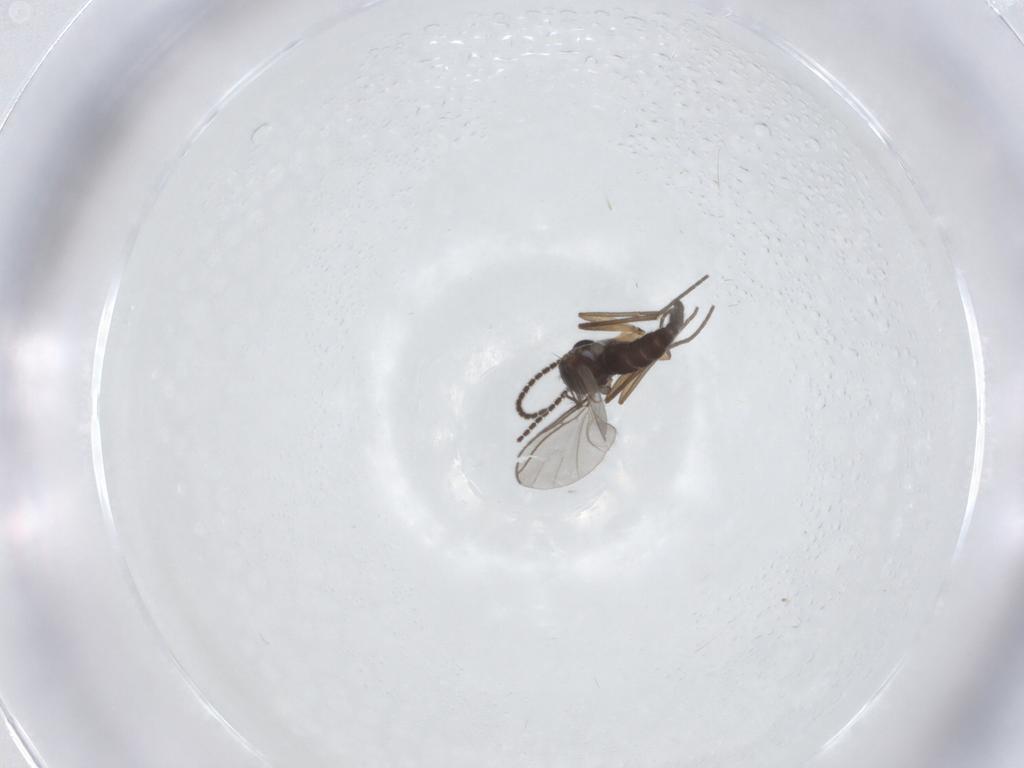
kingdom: Animalia
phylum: Arthropoda
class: Insecta
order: Diptera
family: Sciaridae
